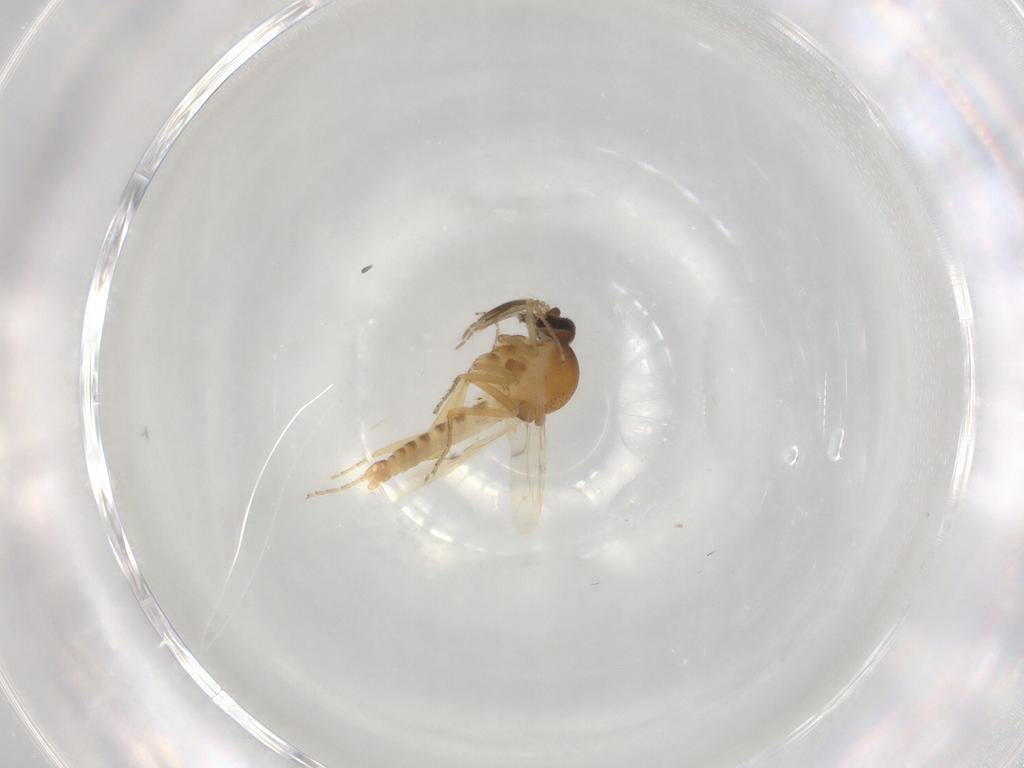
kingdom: Animalia
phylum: Arthropoda
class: Insecta
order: Diptera
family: Ceratopogonidae
